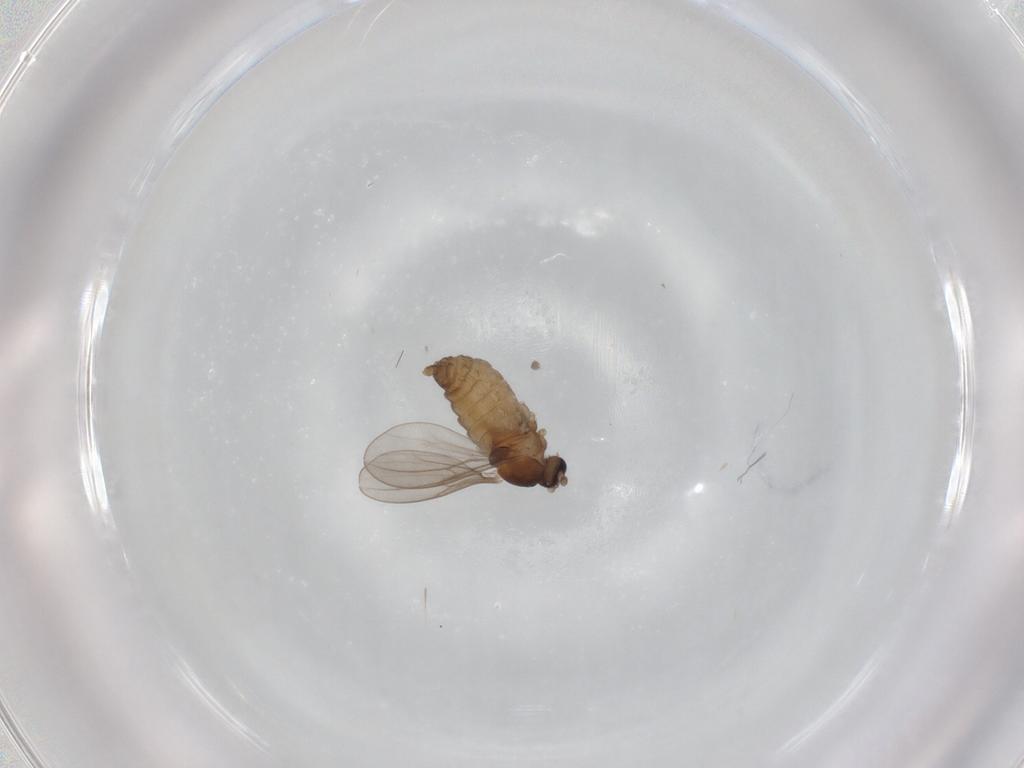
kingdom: Animalia
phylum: Arthropoda
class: Insecta
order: Diptera
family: Cecidomyiidae
